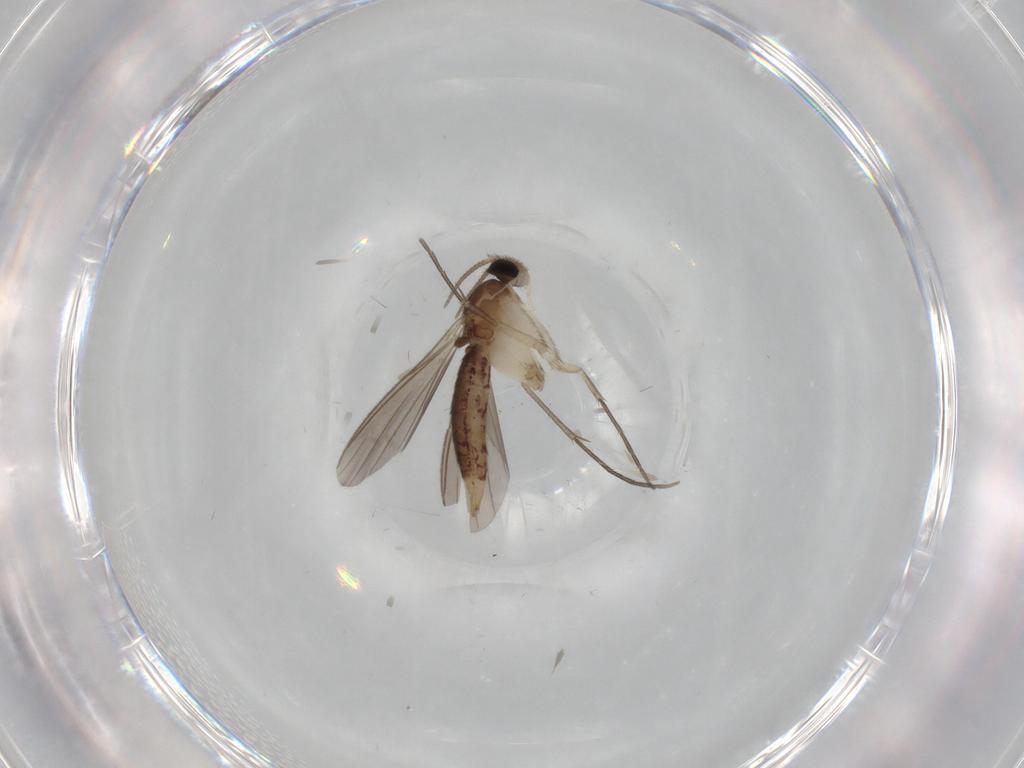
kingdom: Animalia
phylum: Arthropoda
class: Insecta
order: Diptera
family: Mycetophilidae
